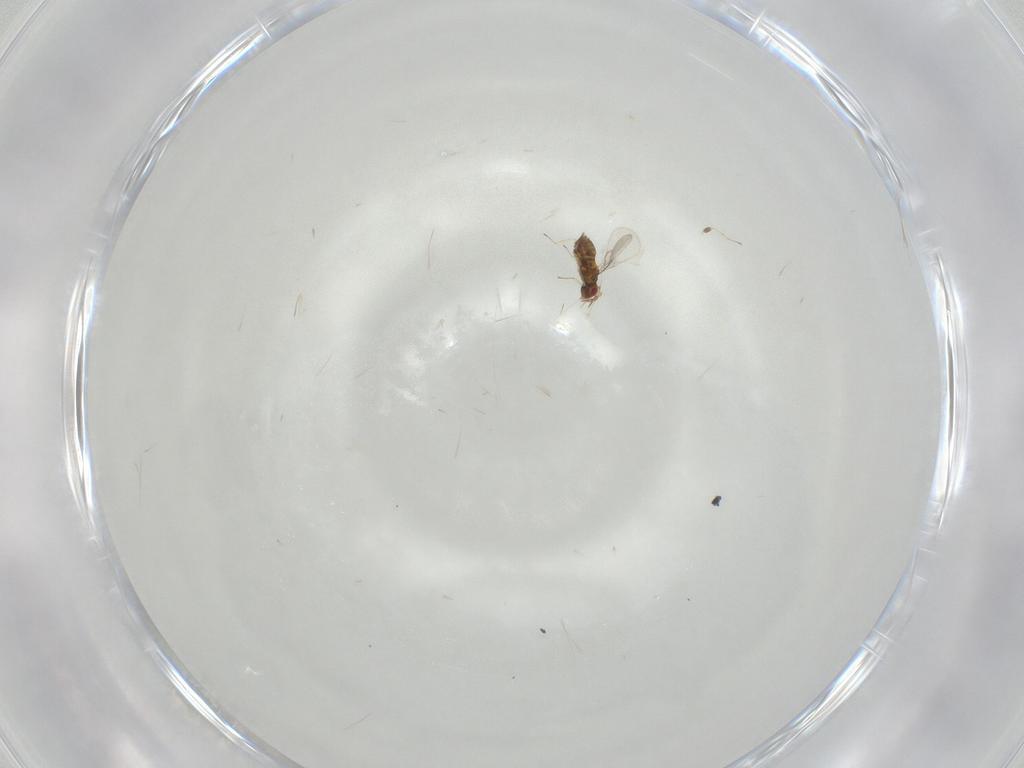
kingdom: Animalia
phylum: Arthropoda
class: Insecta
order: Hymenoptera
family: Trichogrammatidae
